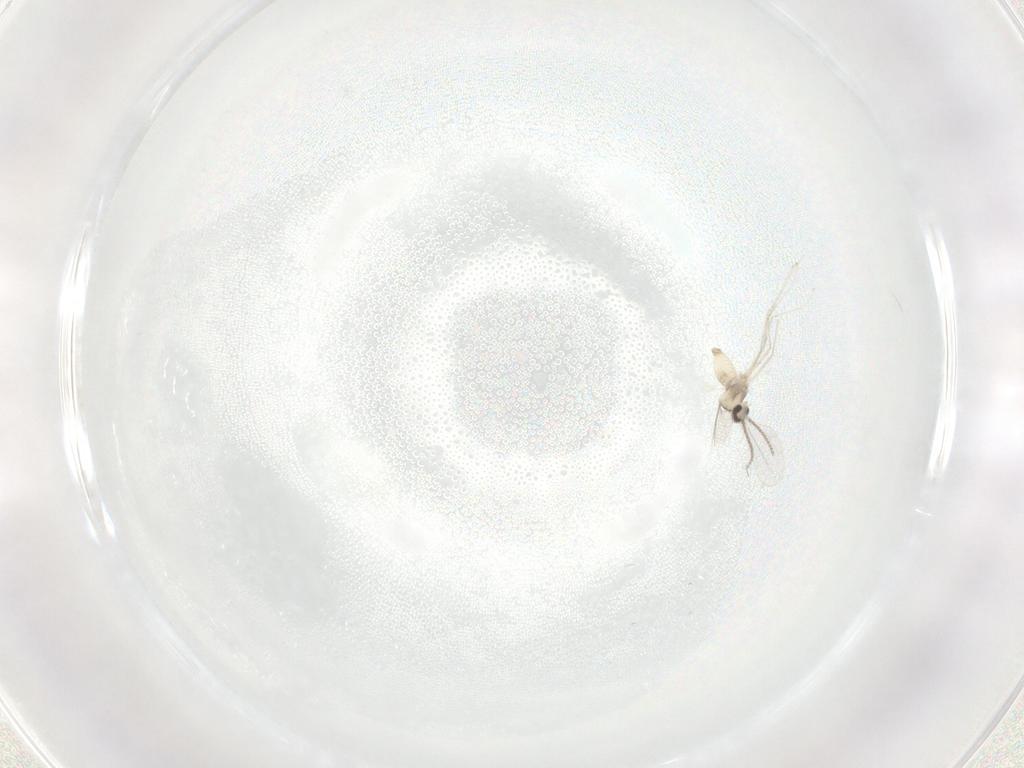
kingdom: Animalia
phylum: Arthropoda
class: Insecta
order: Diptera
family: Cecidomyiidae
